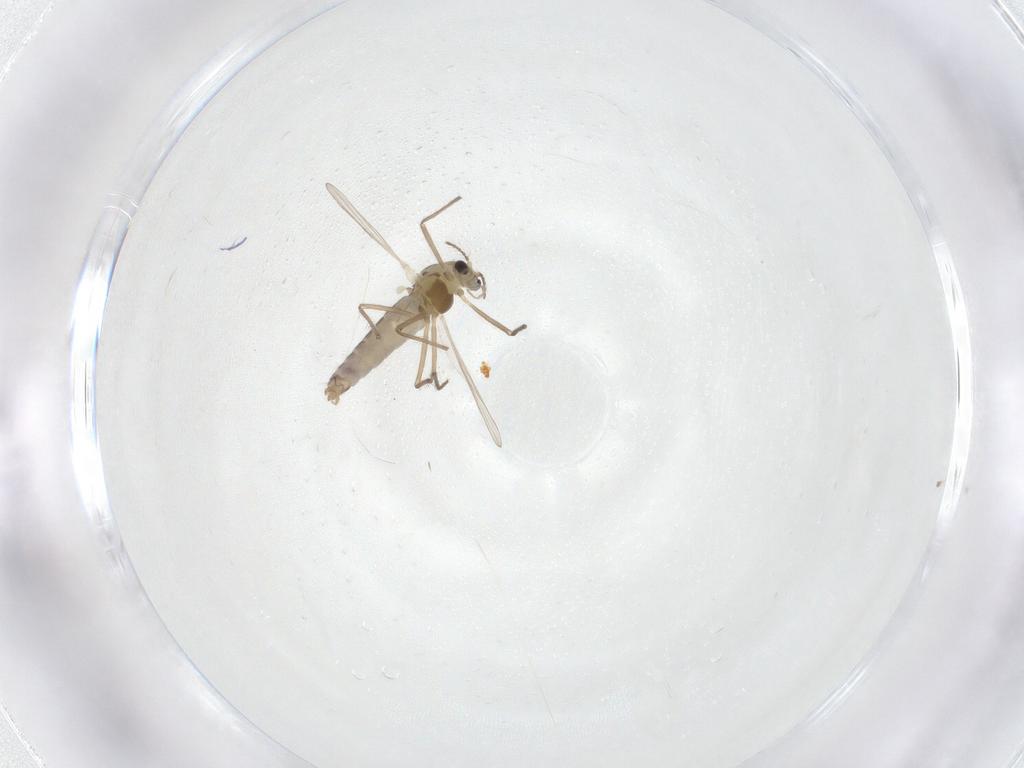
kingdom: Animalia
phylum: Arthropoda
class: Insecta
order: Diptera
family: Chironomidae
